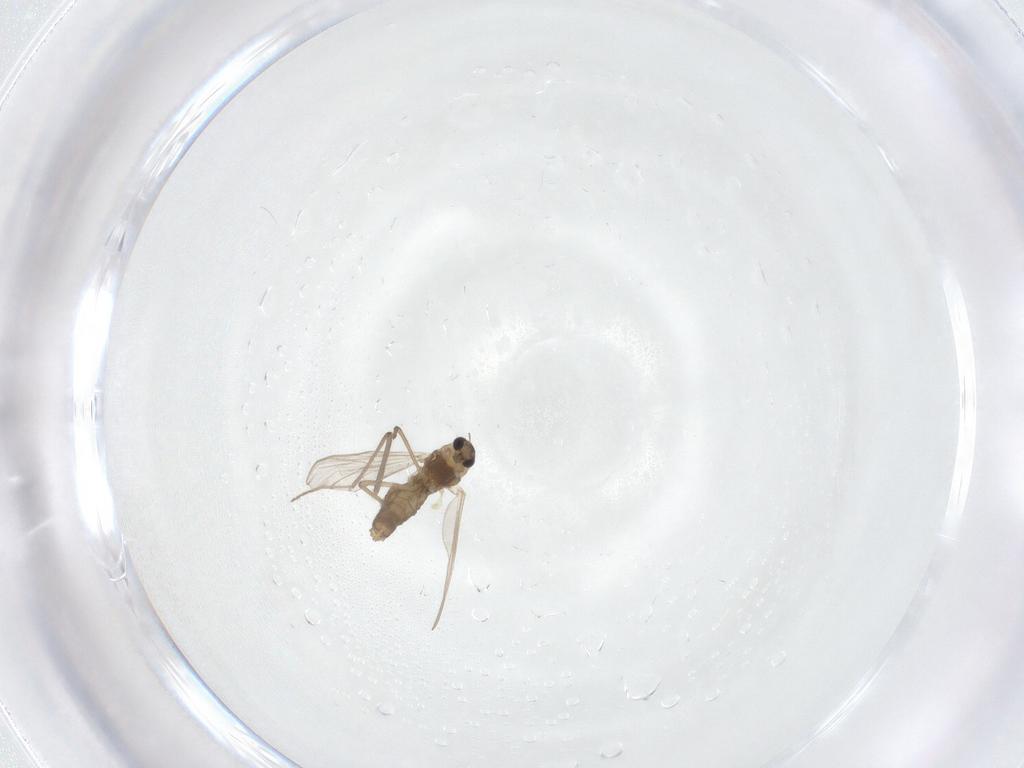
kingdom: Animalia
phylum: Arthropoda
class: Insecta
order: Diptera
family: Chironomidae
